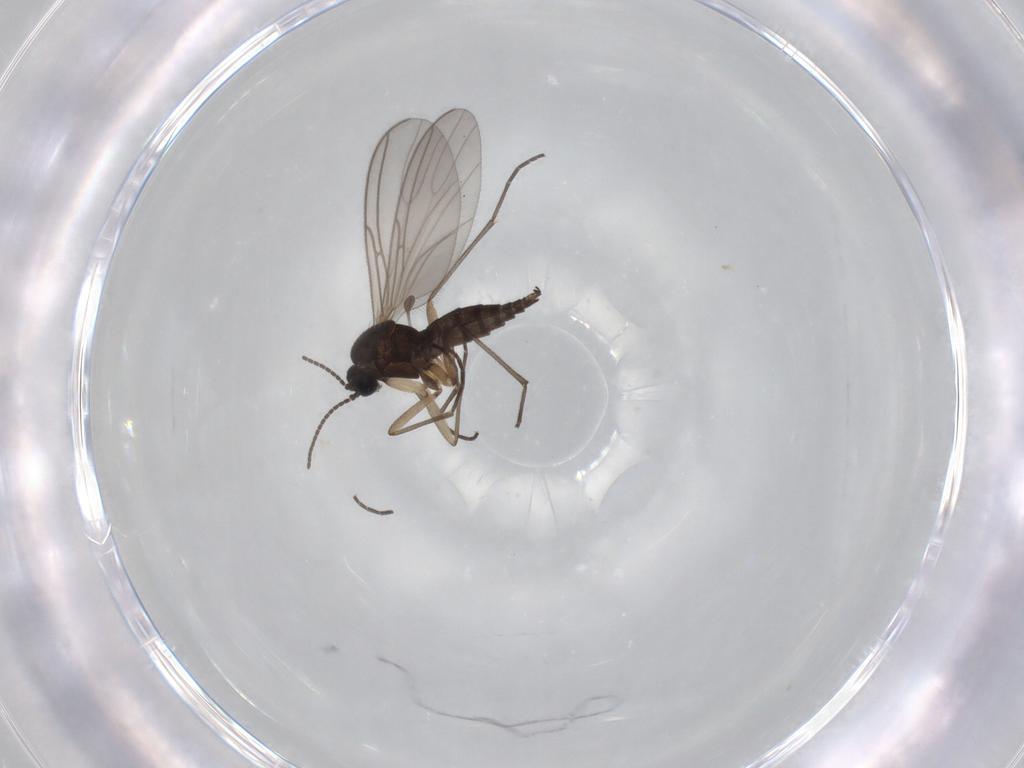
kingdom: Animalia
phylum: Arthropoda
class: Insecta
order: Diptera
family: Sciaridae
